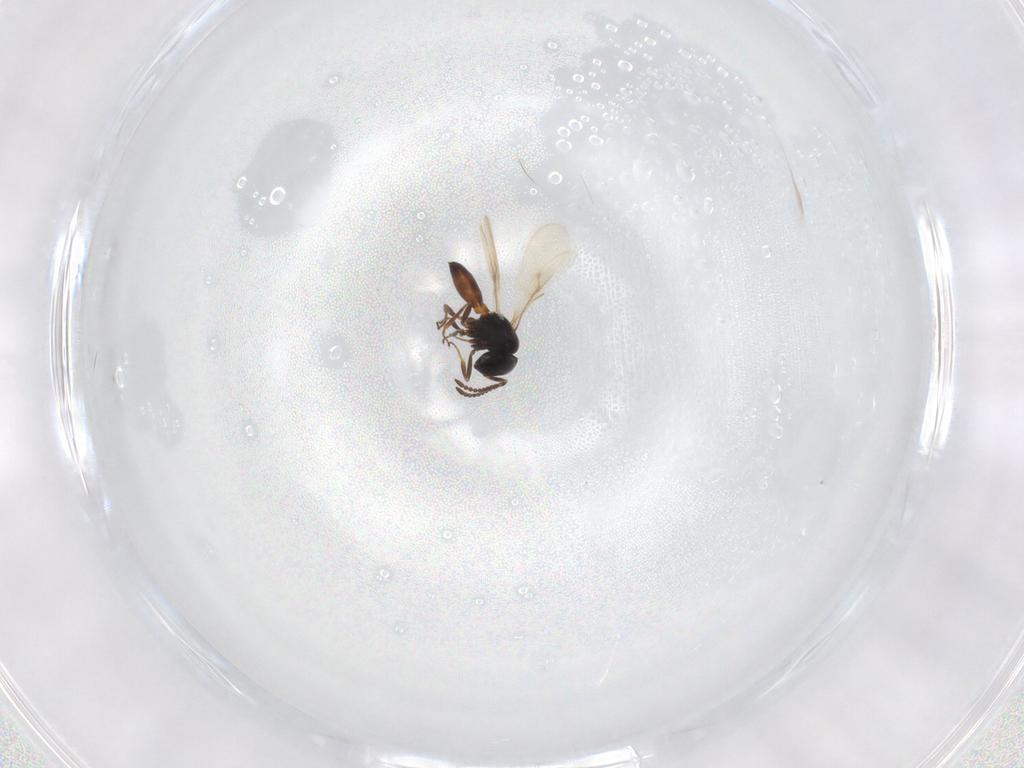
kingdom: Animalia
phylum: Arthropoda
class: Insecta
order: Hymenoptera
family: Scelionidae
